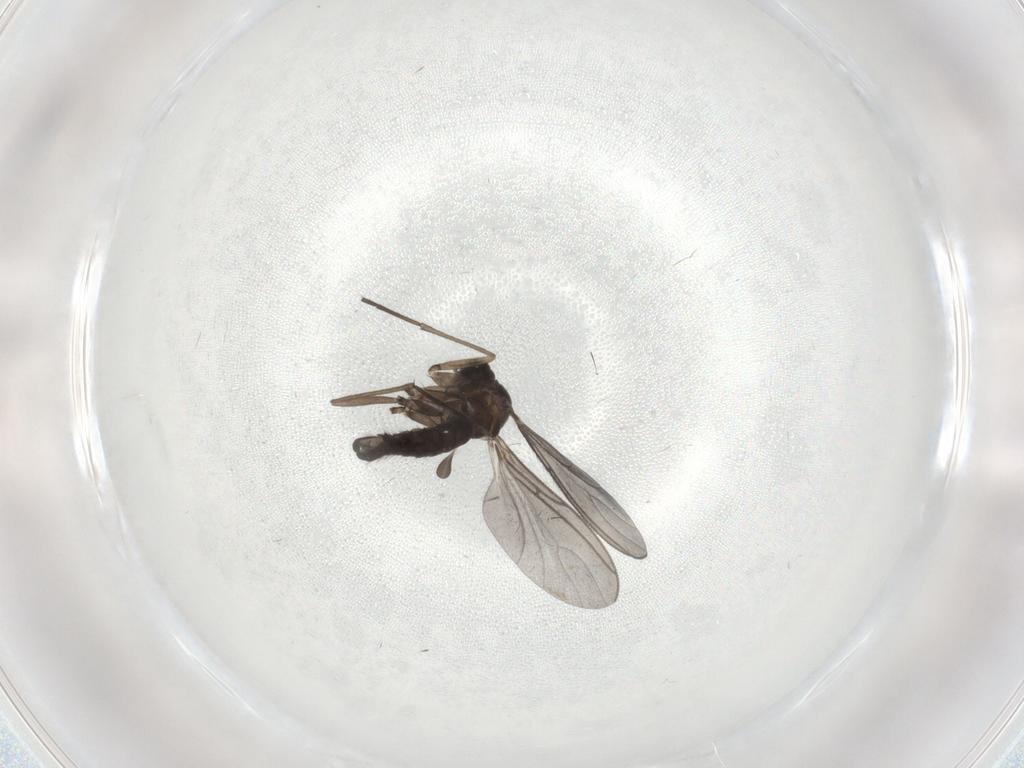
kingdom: Animalia
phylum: Arthropoda
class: Insecta
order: Diptera
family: Sciaridae
